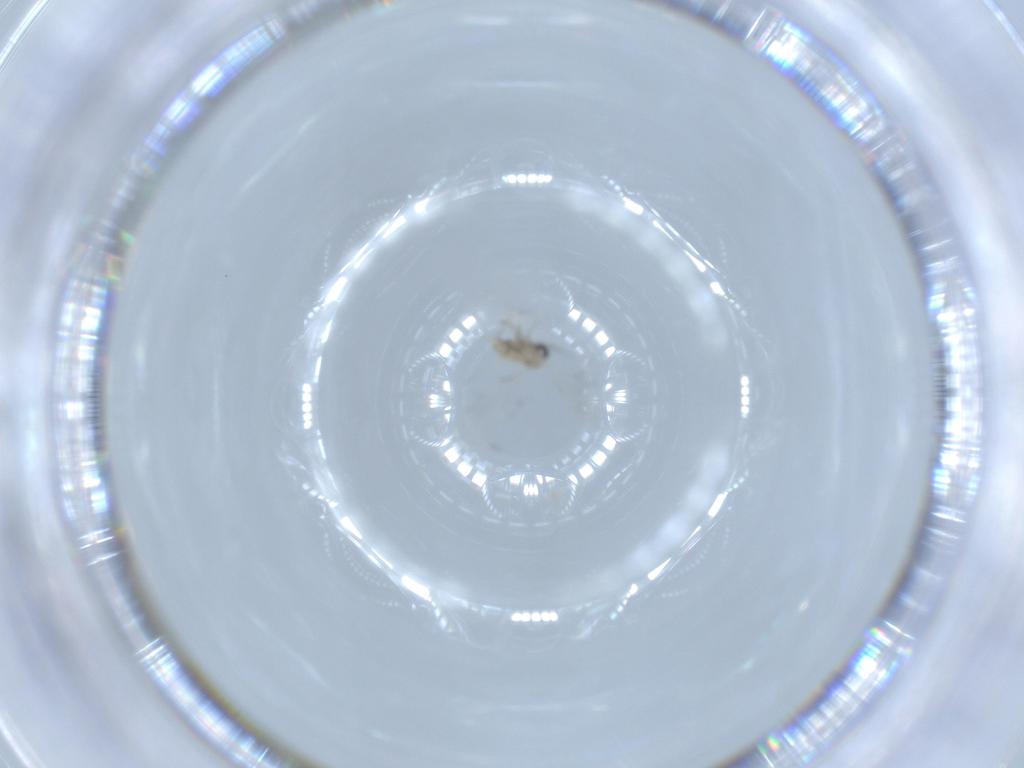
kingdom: Animalia
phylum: Arthropoda
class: Insecta
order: Diptera
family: Cecidomyiidae
